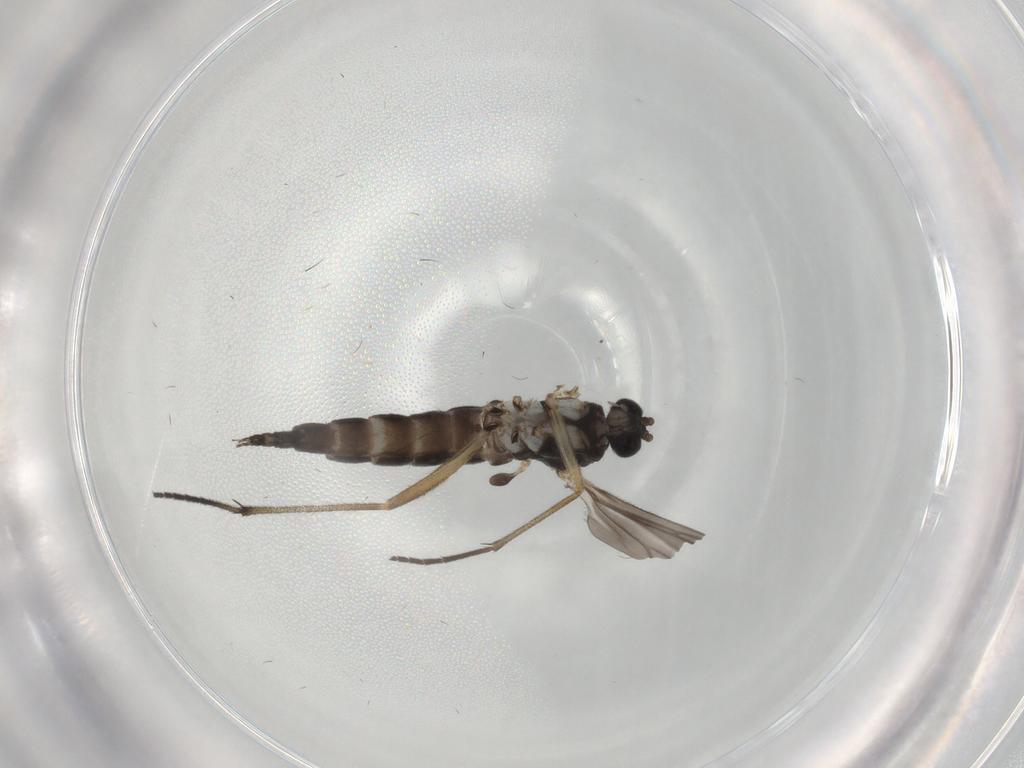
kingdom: Animalia
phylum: Arthropoda
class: Insecta
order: Diptera
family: Sciaridae
